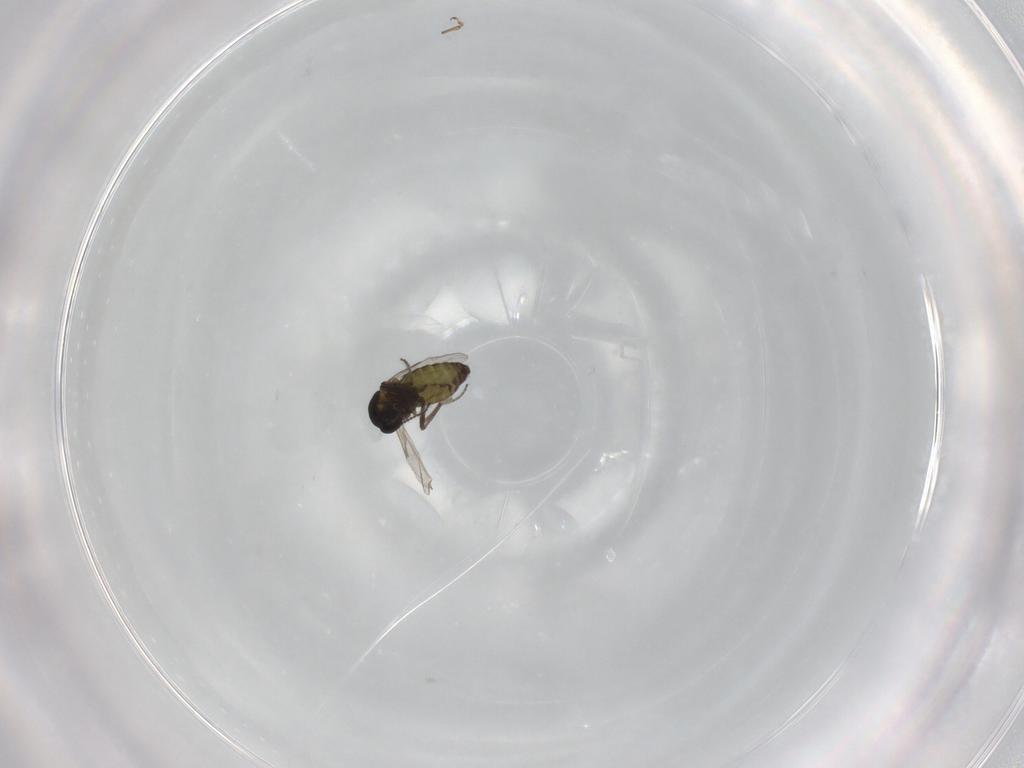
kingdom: Animalia
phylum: Arthropoda
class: Insecta
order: Diptera
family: Ceratopogonidae
